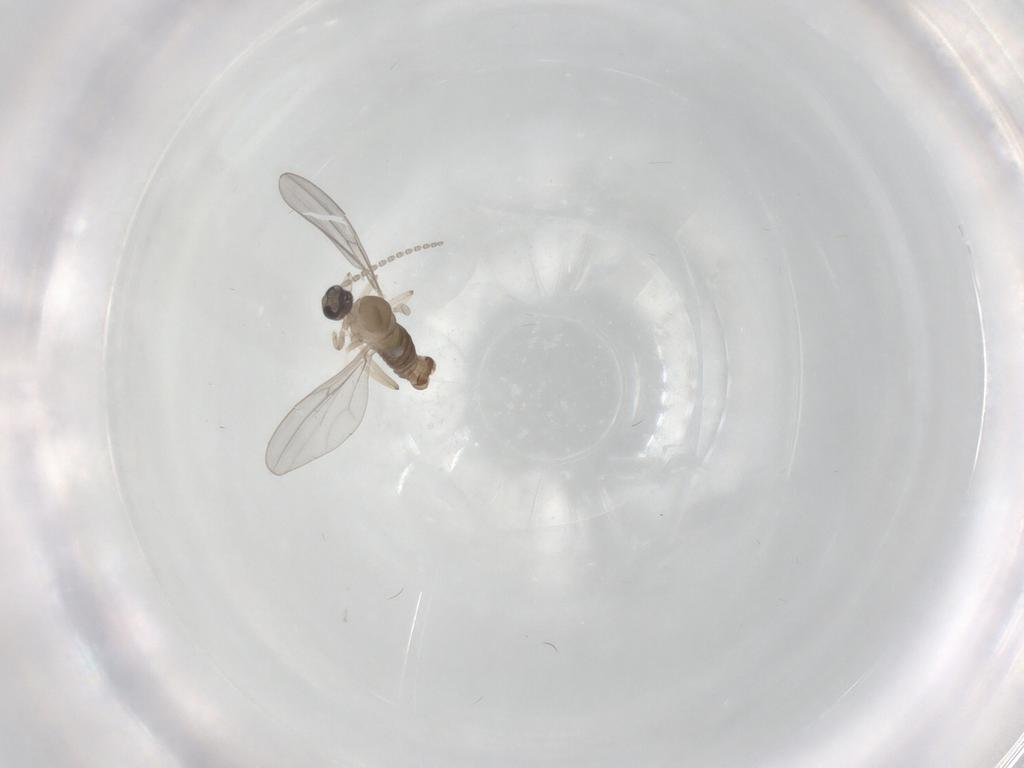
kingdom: Animalia
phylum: Arthropoda
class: Insecta
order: Diptera
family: Cecidomyiidae
